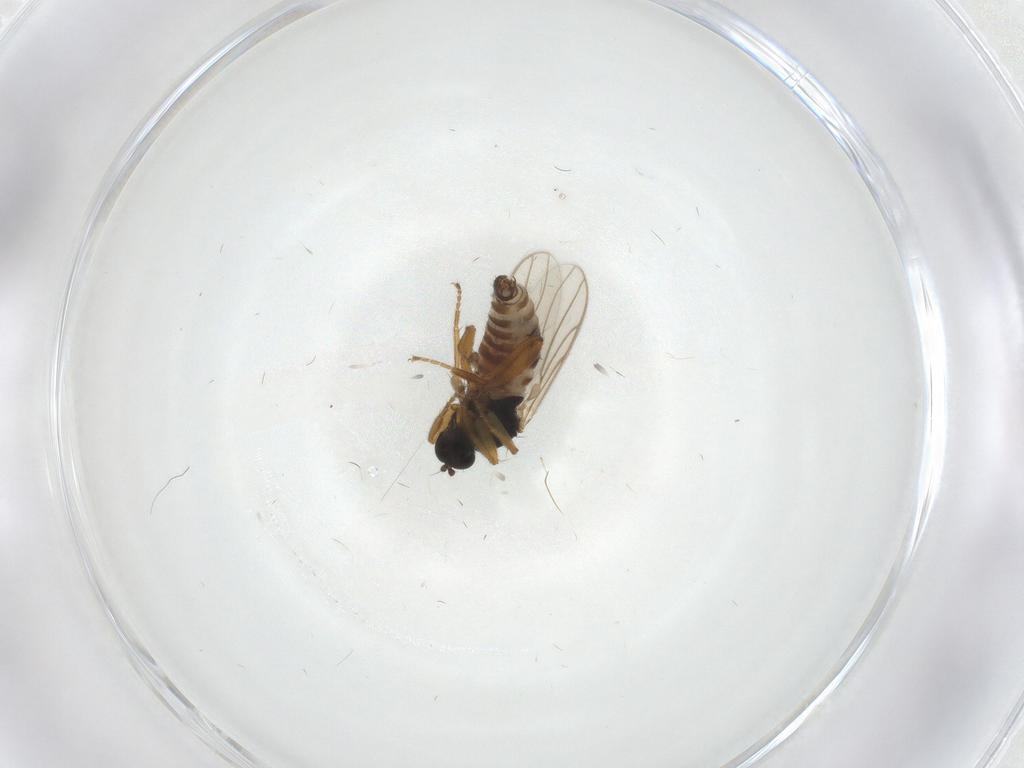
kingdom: Animalia
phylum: Arthropoda
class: Insecta
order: Diptera
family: Hybotidae
